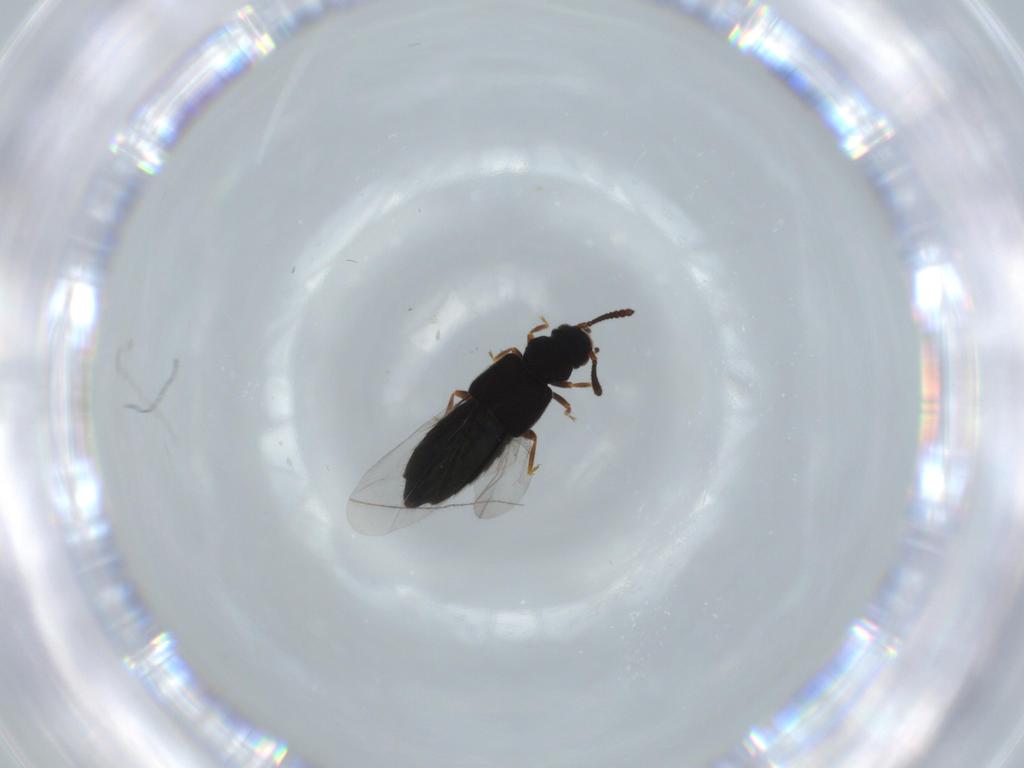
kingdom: Animalia
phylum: Arthropoda
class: Insecta
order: Coleoptera
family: Staphylinidae
